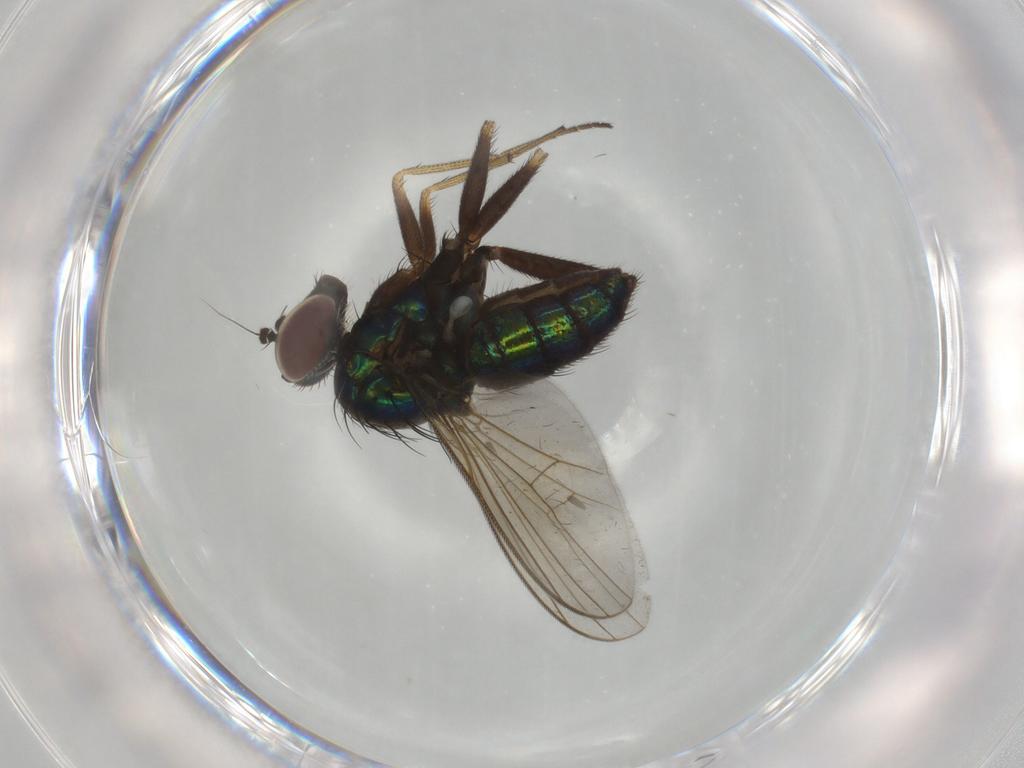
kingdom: Animalia
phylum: Arthropoda
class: Insecta
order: Diptera
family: Dolichopodidae
